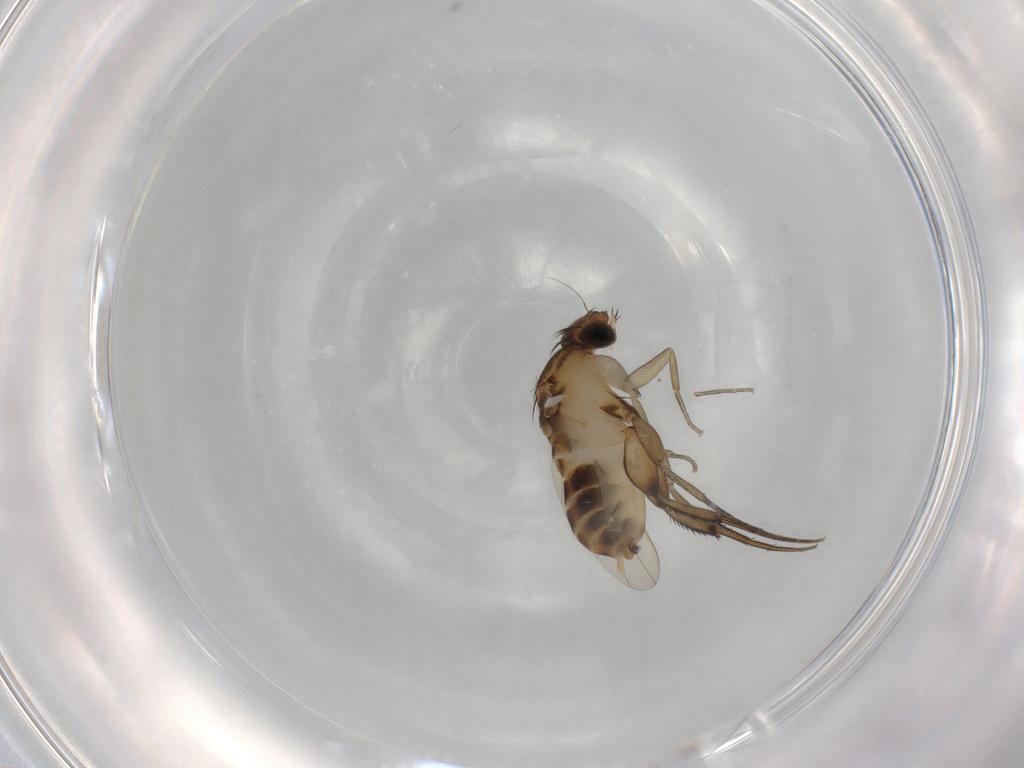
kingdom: Animalia
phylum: Arthropoda
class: Insecta
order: Diptera
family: Phoridae
